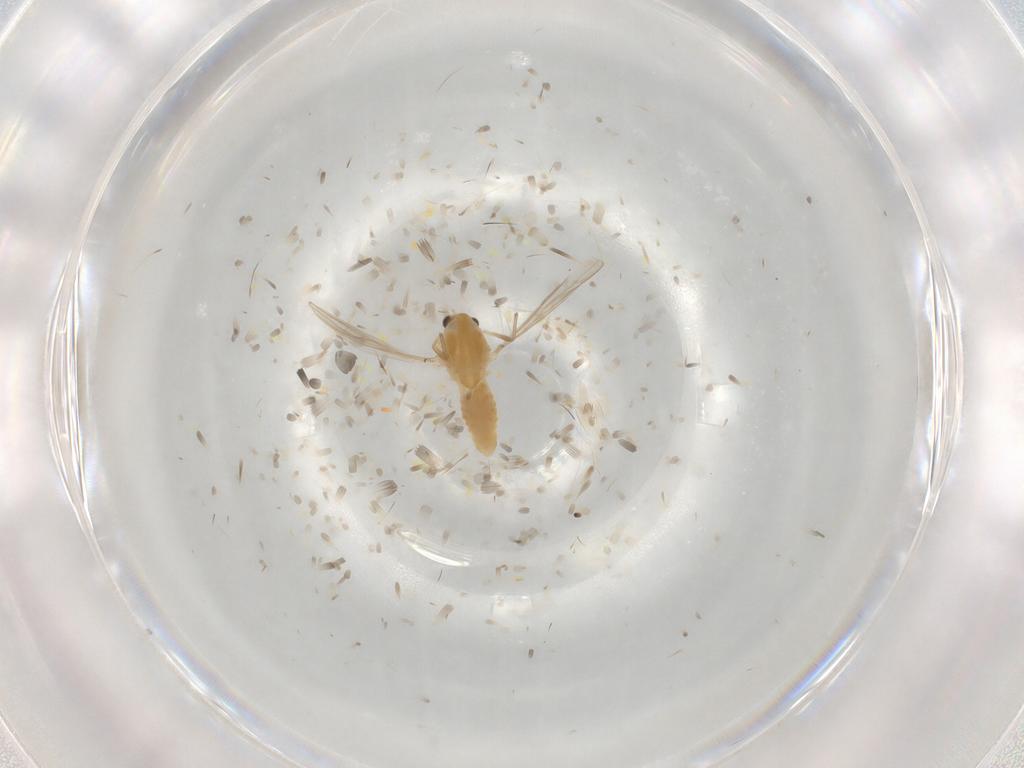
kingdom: Animalia
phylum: Arthropoda
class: Insecta
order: Diptera
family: Chironomidae
